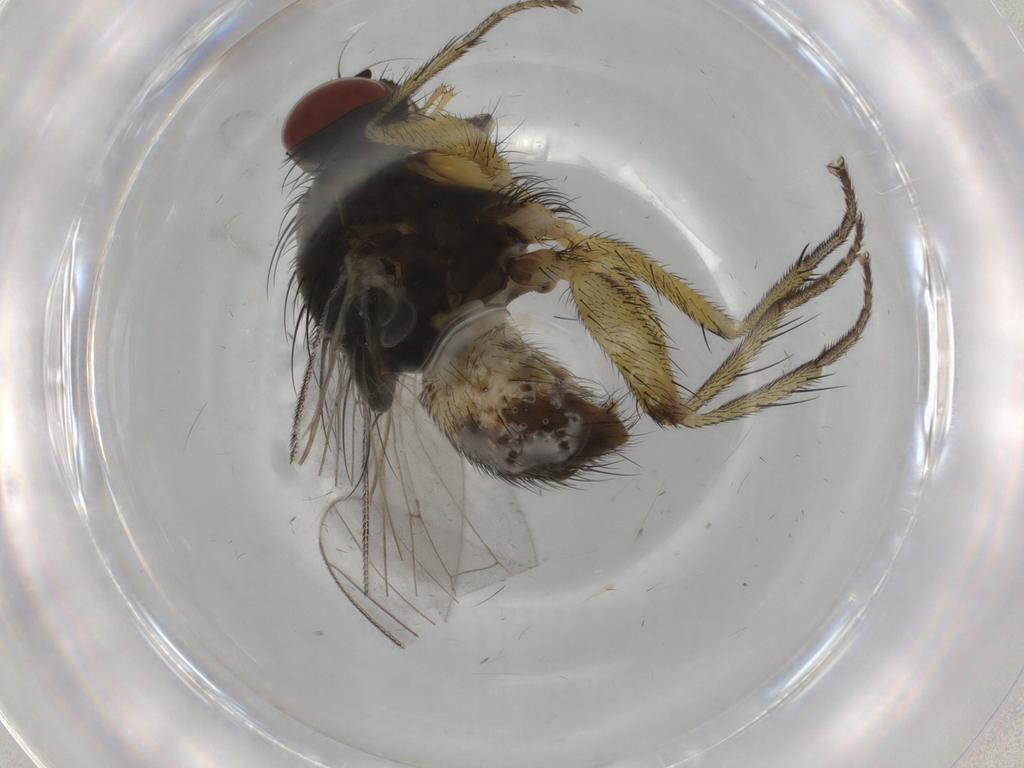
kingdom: Animalia
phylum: Arthropoda
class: Insecta
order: Diptera
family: Muscidae
